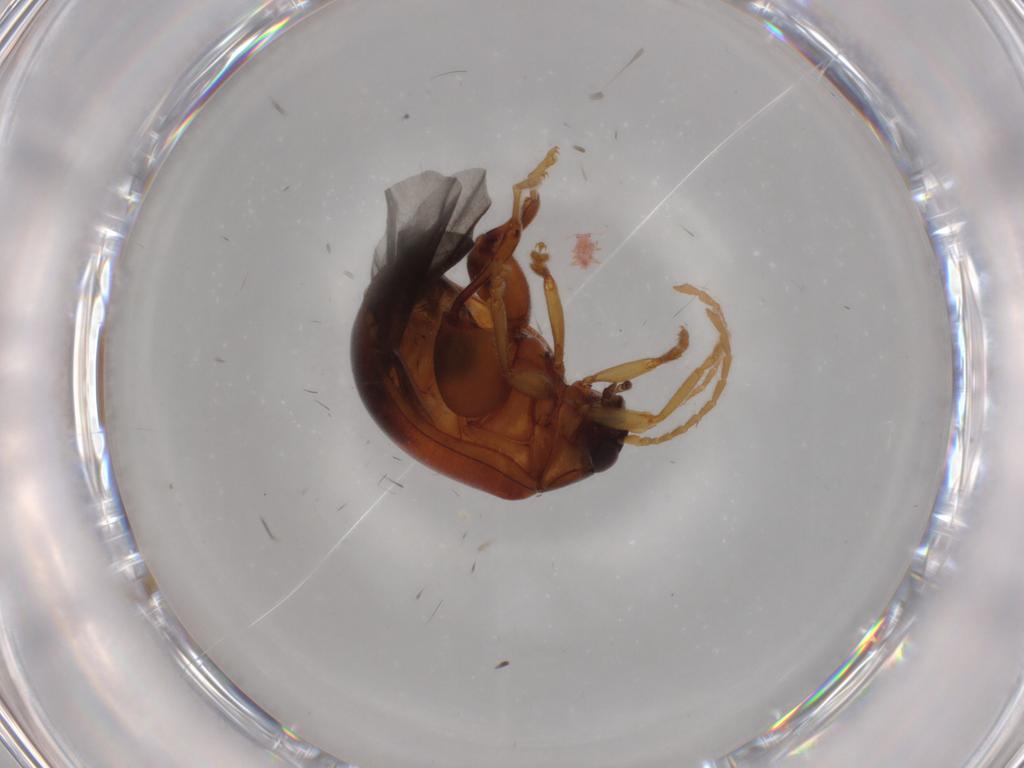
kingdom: Animalia
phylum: Arthropoda
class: Insecta
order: Coleoptera
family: Chrysomelidae
